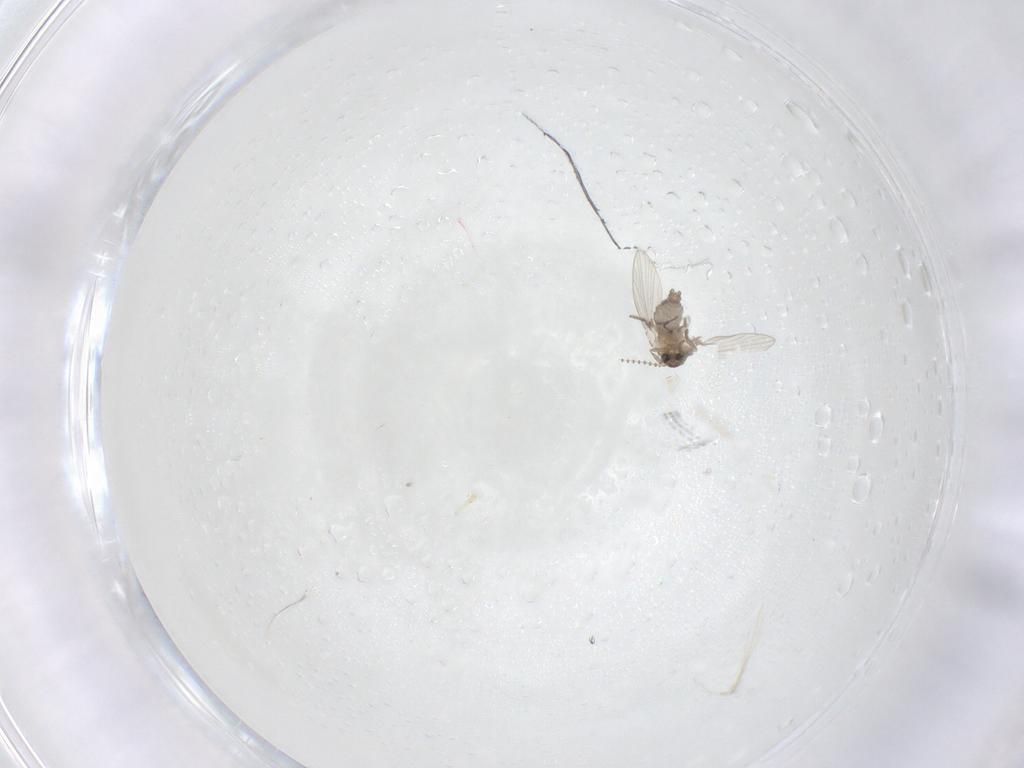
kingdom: Animalia
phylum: Arthropoda
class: Insecta
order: Diptera
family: Psychodidae
